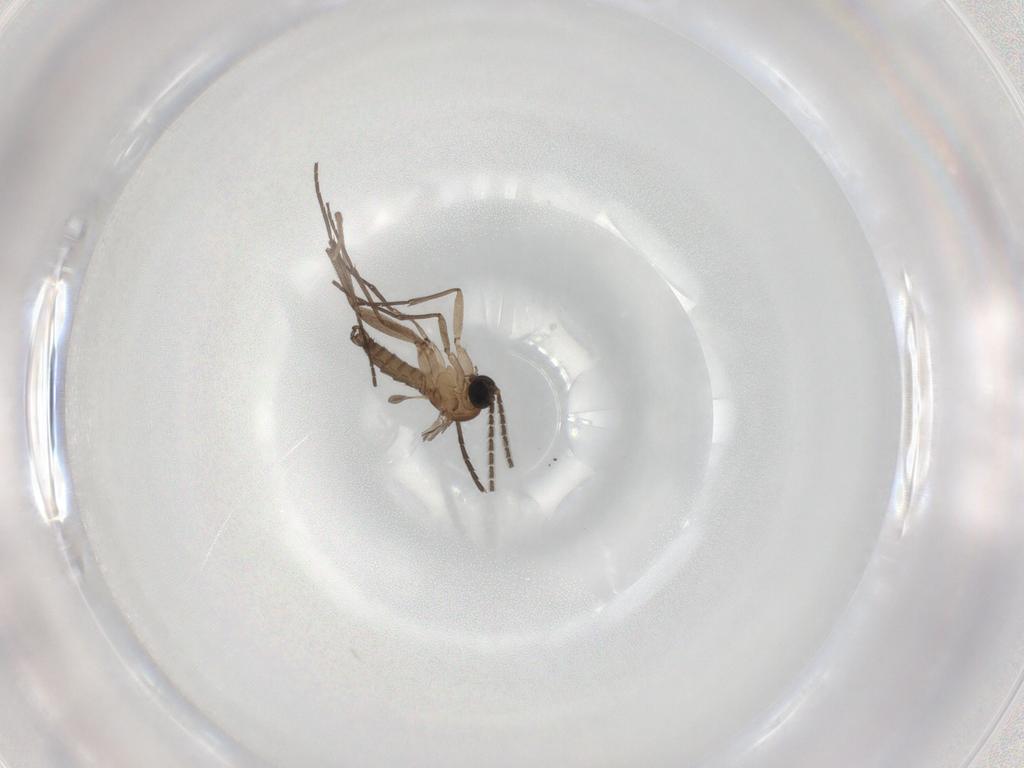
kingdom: Animalia
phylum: Arthropoda
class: Insecta
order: Diptera
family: Sciaridae
